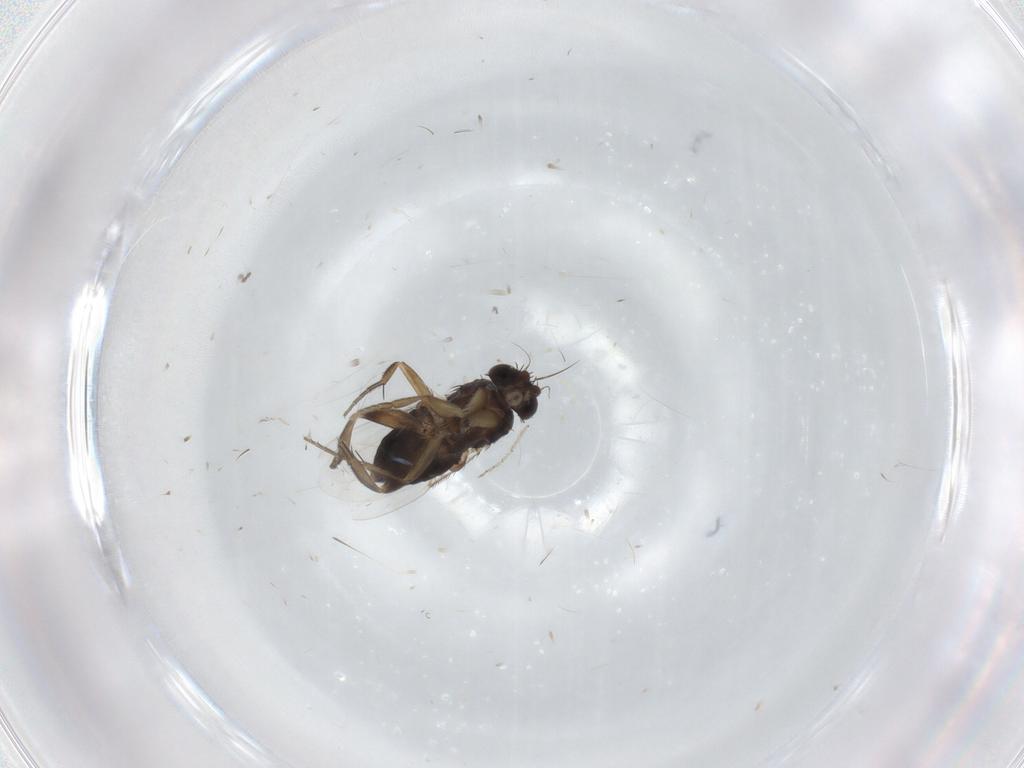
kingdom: Animalia
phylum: Arthropoda
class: Insecta
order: Diptera
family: Phoridae
